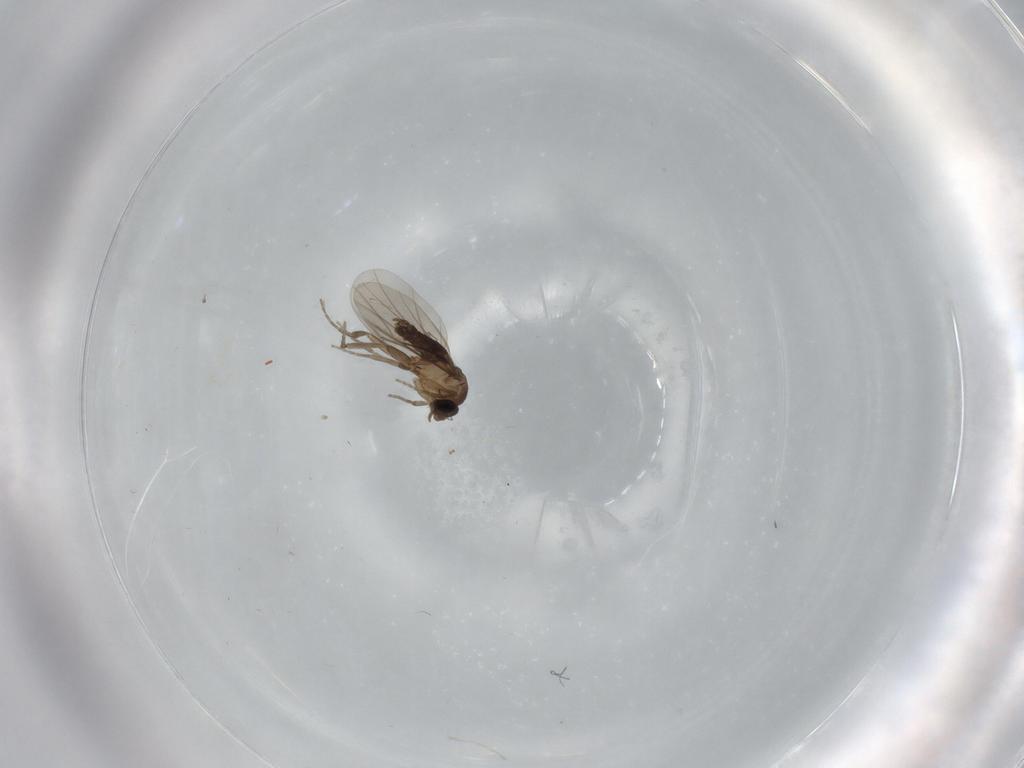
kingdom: Animalia
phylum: Arthropoda
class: Insecta
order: Diptera
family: Phoridae
